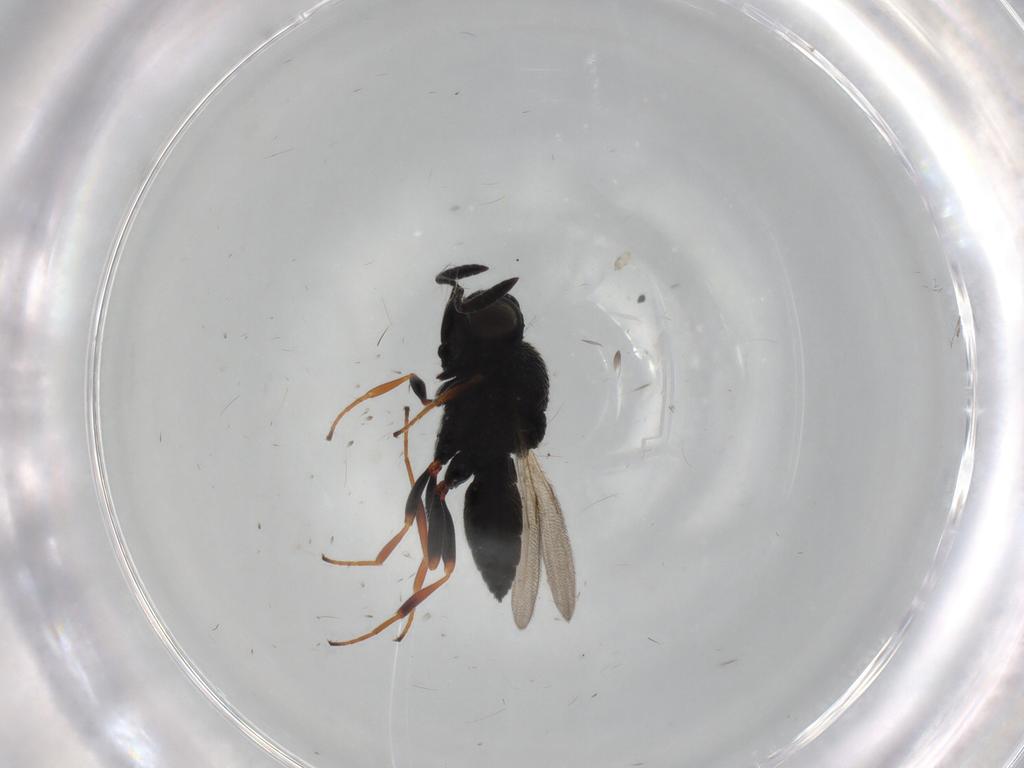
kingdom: Animalia
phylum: Arthropoda
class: Insecta
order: Hymenoptera
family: Scelionidae
